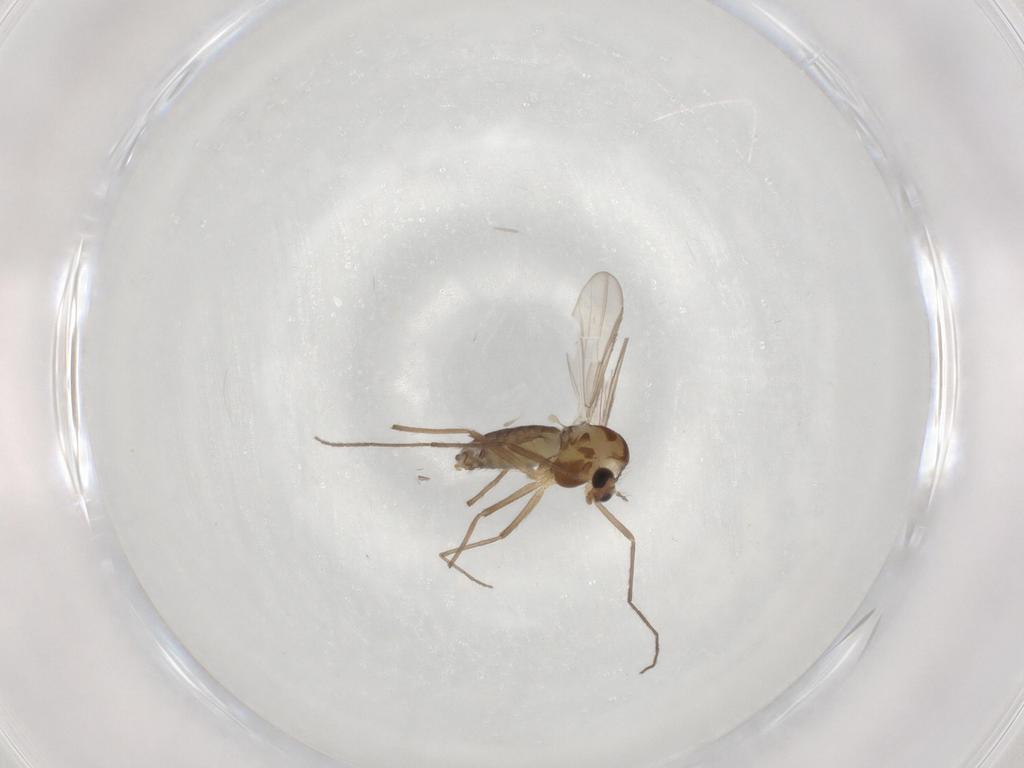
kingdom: Animalia
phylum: Arthropoda
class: Insecta
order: Diptera
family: Chironomidae
